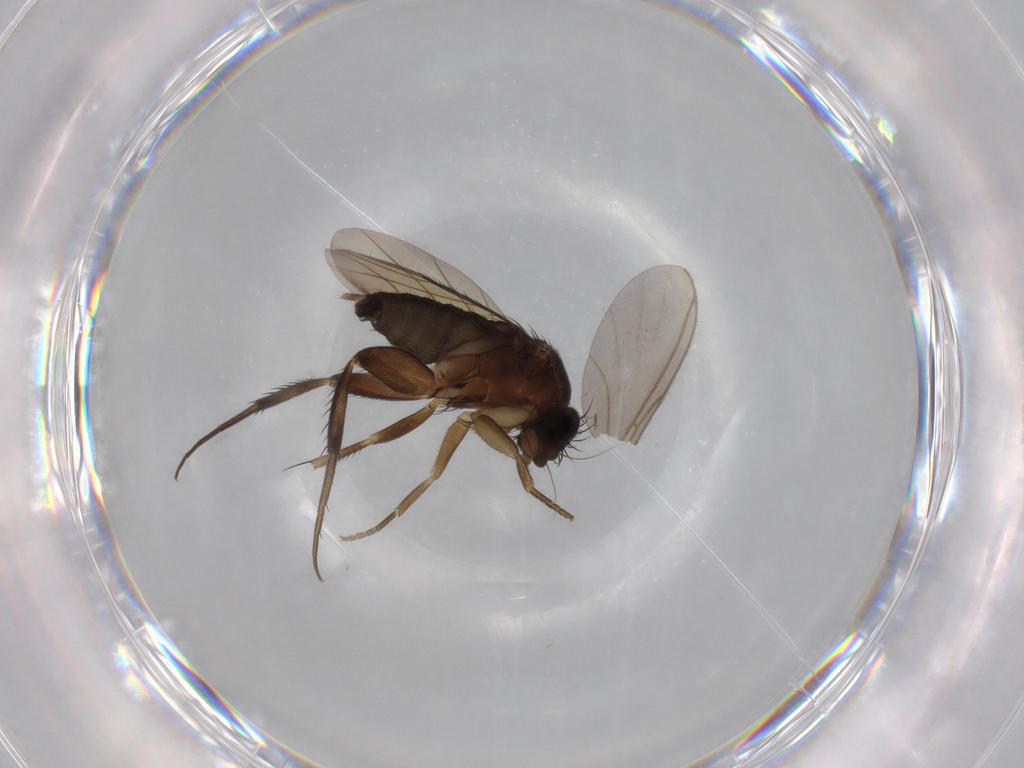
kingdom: Animalia
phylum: Arthropoda
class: Insecta
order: Diptera
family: Phoridae
